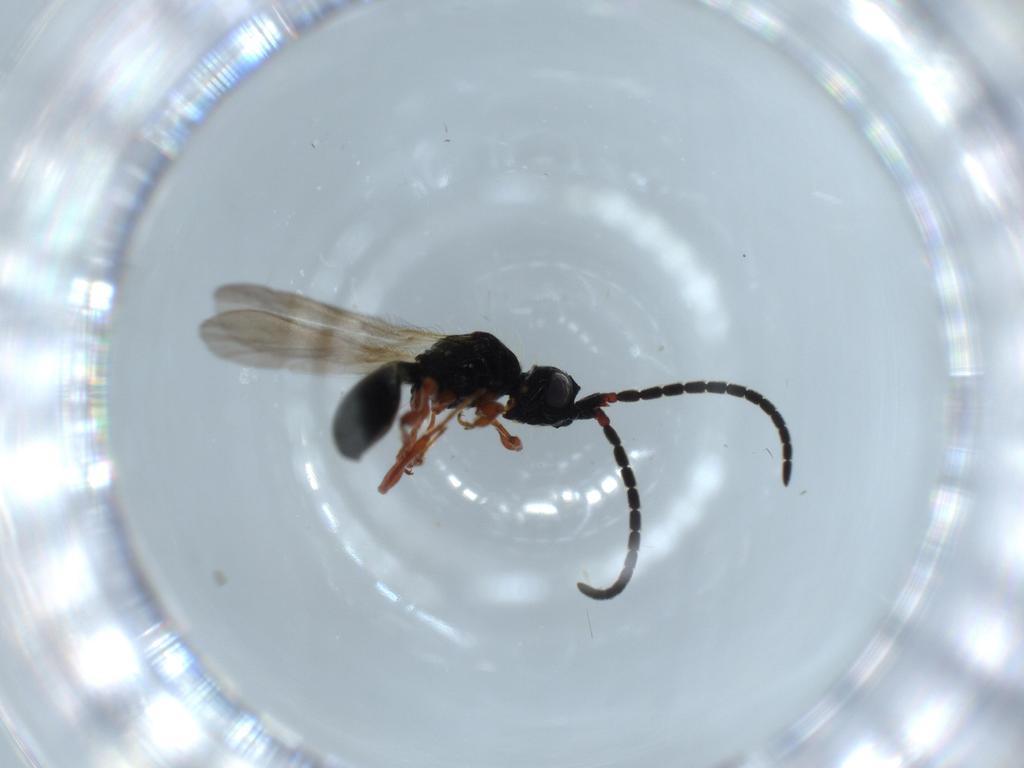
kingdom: Animalia
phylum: Arthropoda
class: Insecta
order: Hymenoptera
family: Diapriidae
